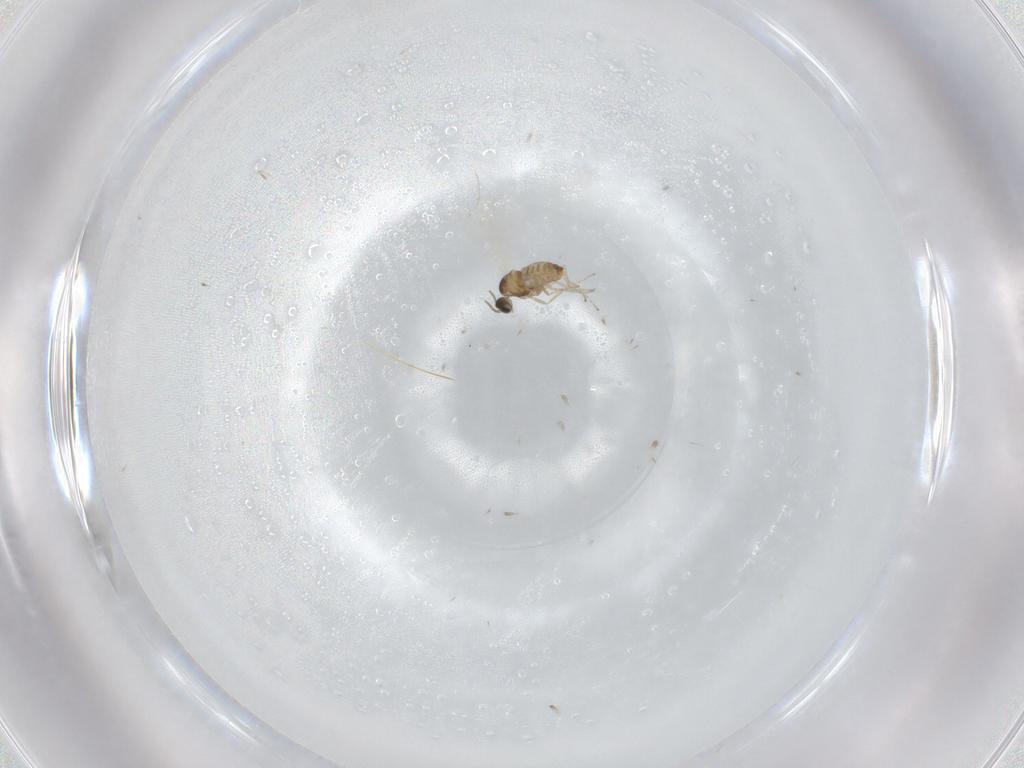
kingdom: Animalia
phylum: Arthropoda
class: Insecta
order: Diptera
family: Cecidomyiidae
